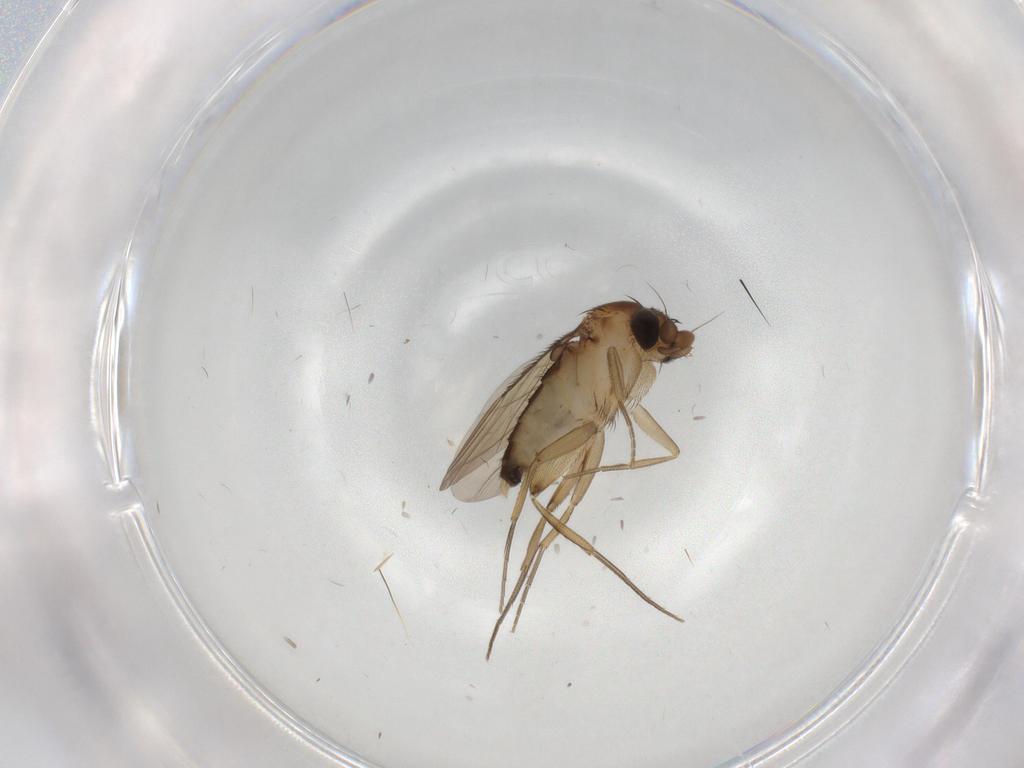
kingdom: Animalia
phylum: Arthropoda
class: Insecta
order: Diptera
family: Phoridae
